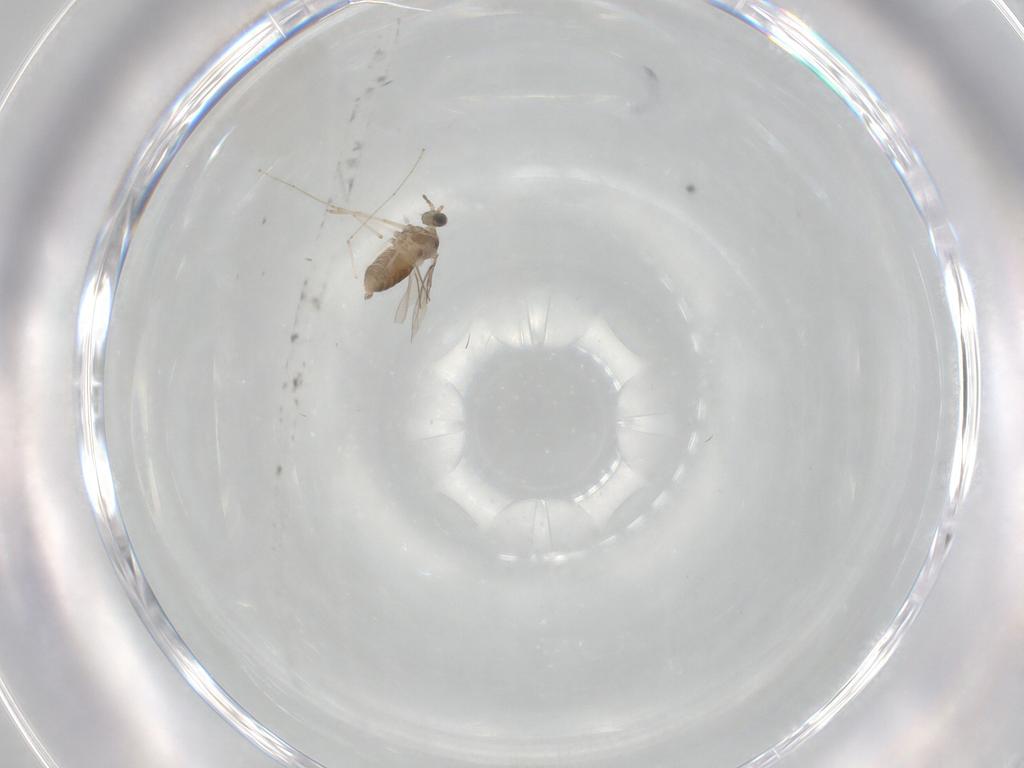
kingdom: Animalia
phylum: Arthropoda
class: Insecta
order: Diptera
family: Cecidomyiidae
